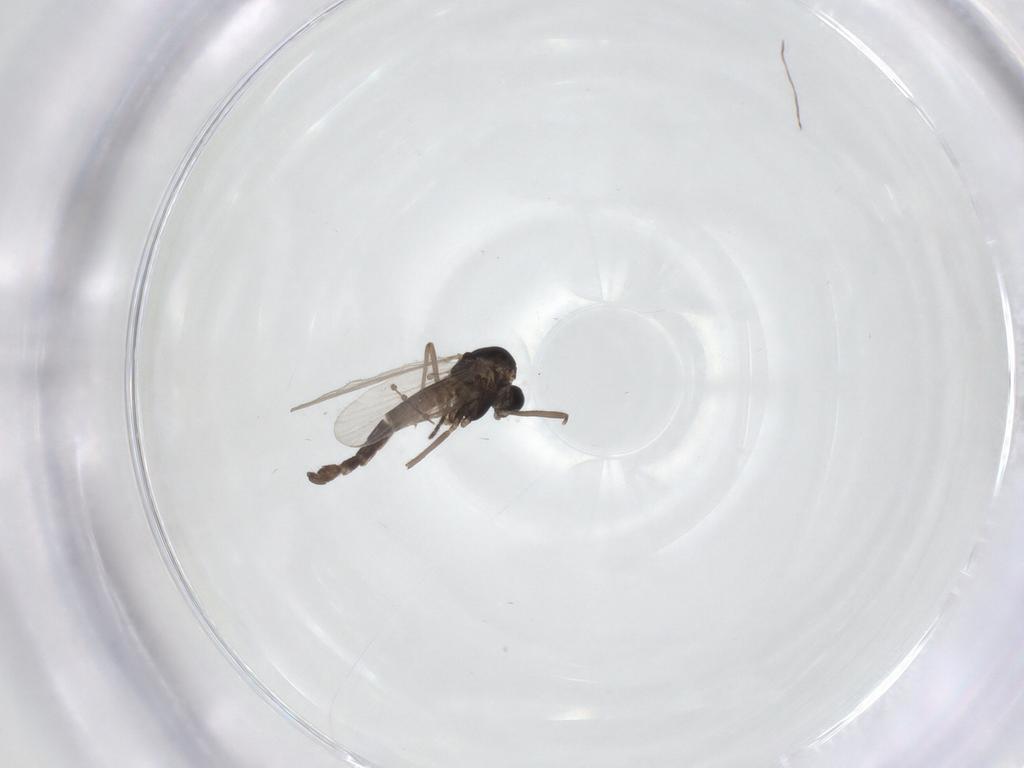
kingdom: Animalia
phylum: Arthropoda
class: Insecta
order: Diptera
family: Chironomidae
